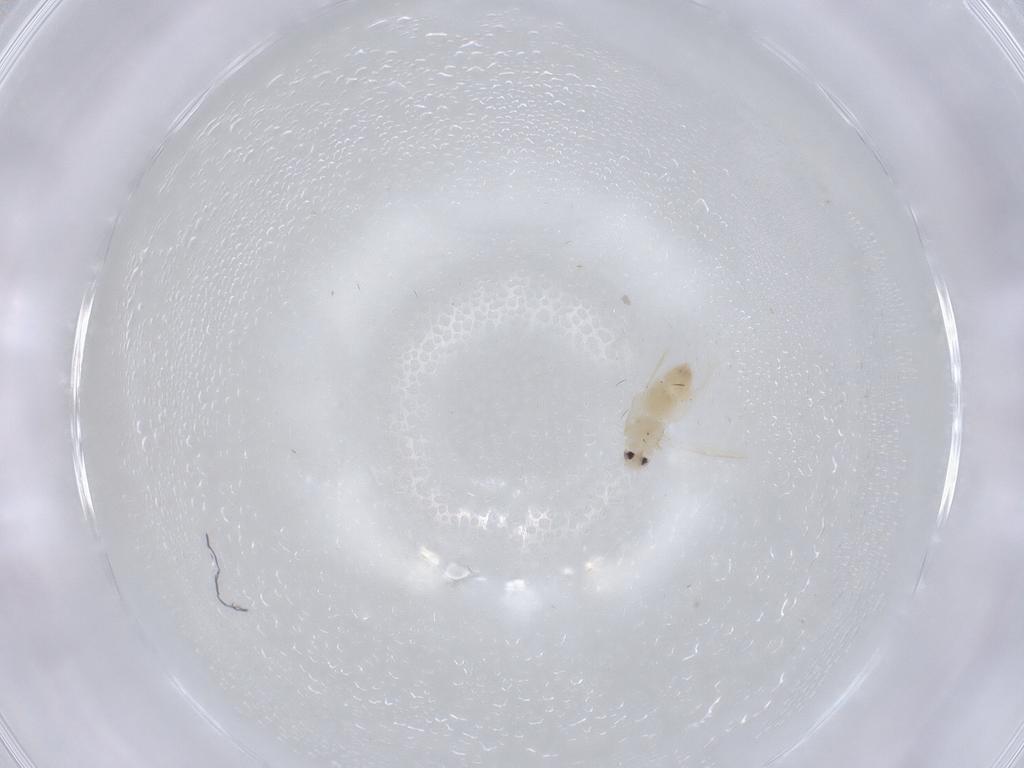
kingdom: Animalia
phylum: Arthropoda
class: Insecta
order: Hemiptera
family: Aleyrodidae
